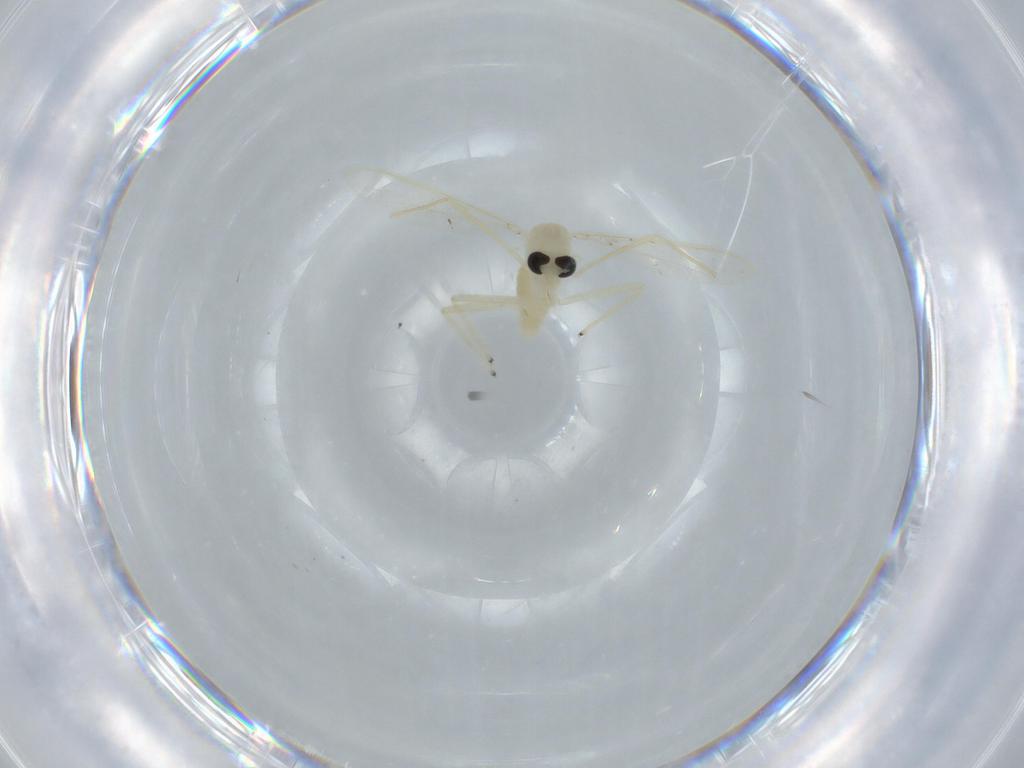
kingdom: Animalia
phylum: Arthropoda
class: Insecta
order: Diptera
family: Chironomidae
